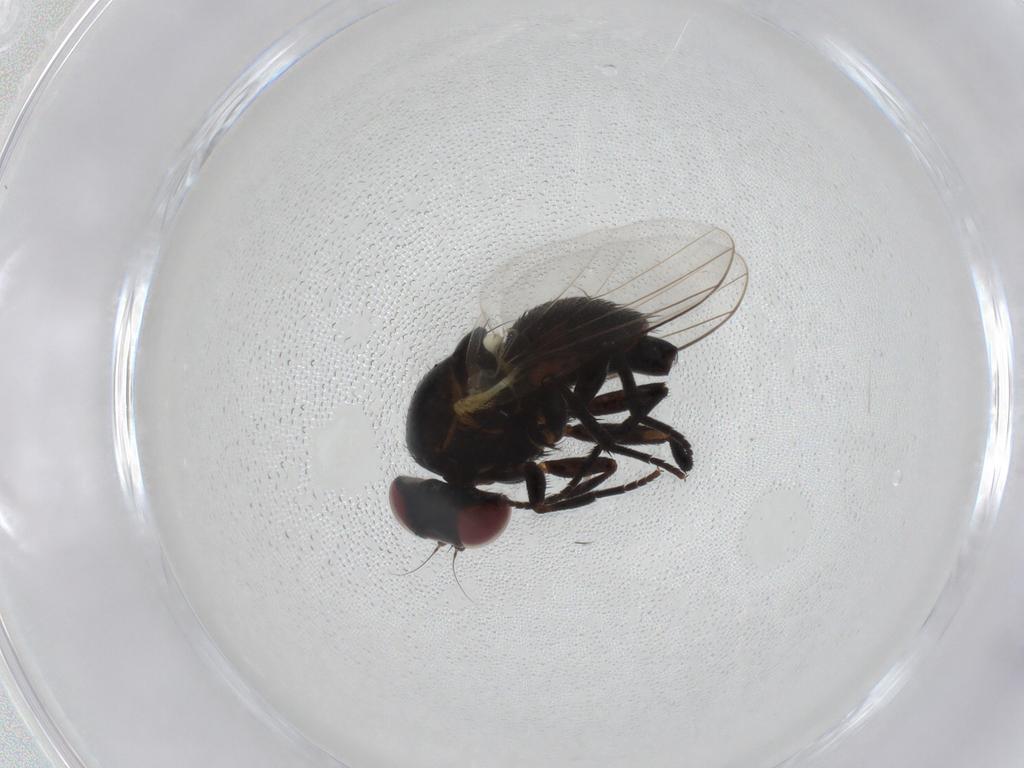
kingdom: Animalia
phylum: Arthropoda
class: Insecta
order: Diptera
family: Agromyzidae
